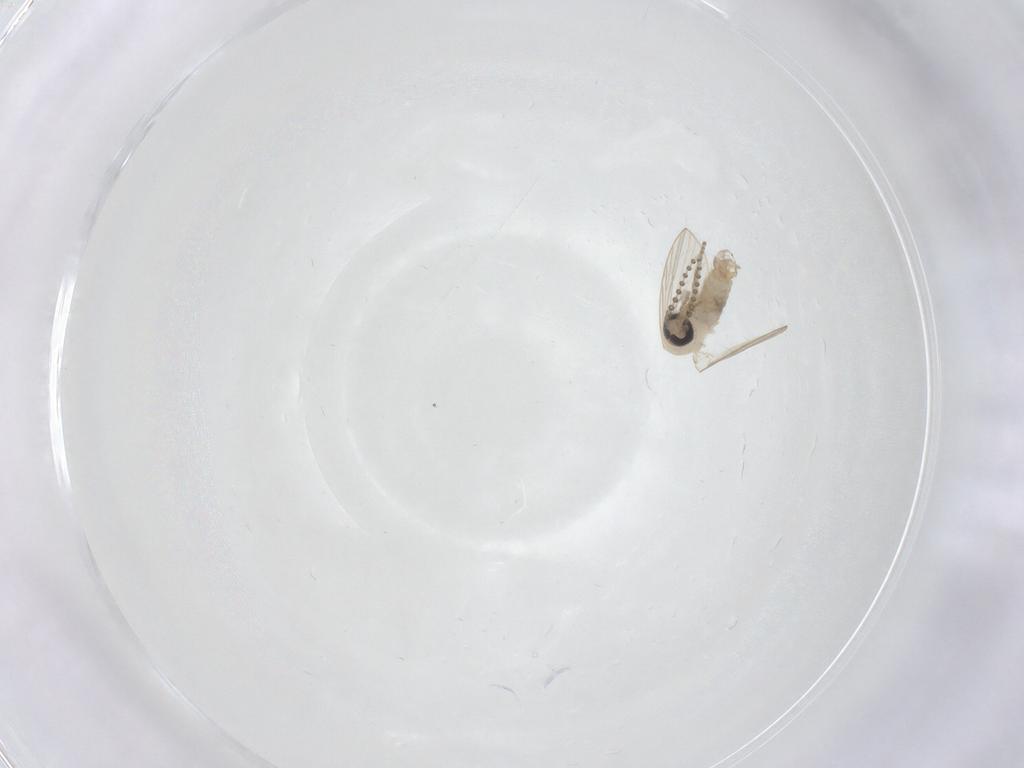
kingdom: Animalia
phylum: Arthropoda
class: Insecta
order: Diptera
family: Psychodidae
